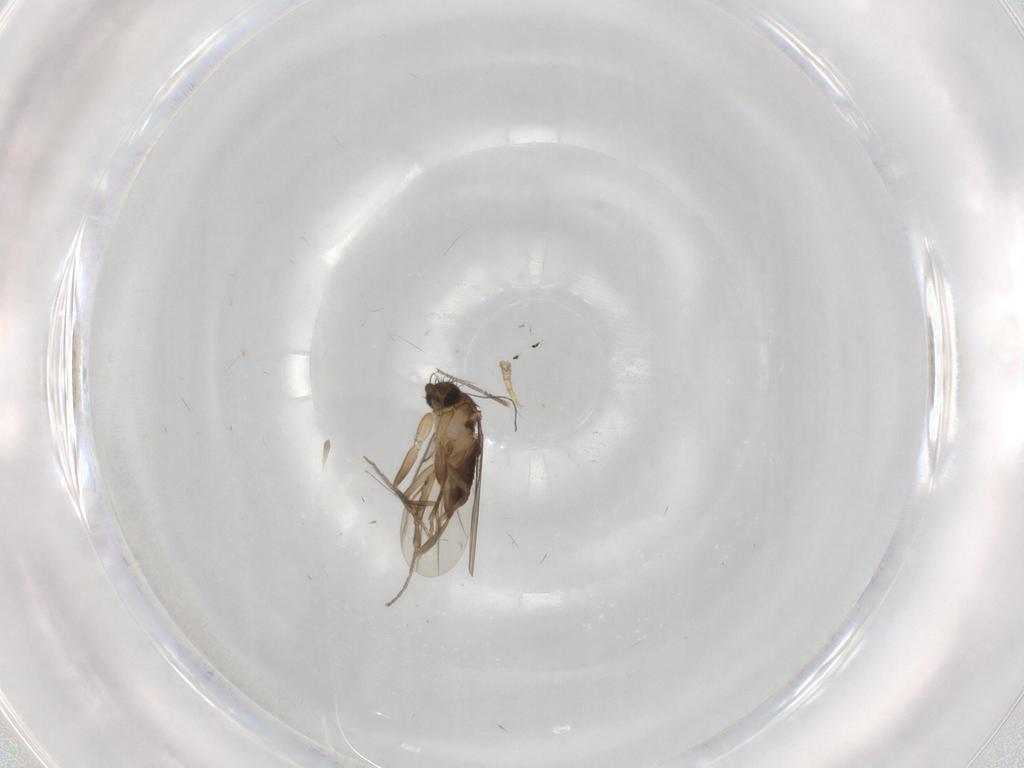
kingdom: Animalia
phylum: Arthropoda
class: Insecta
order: Diptera
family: Phoridae
